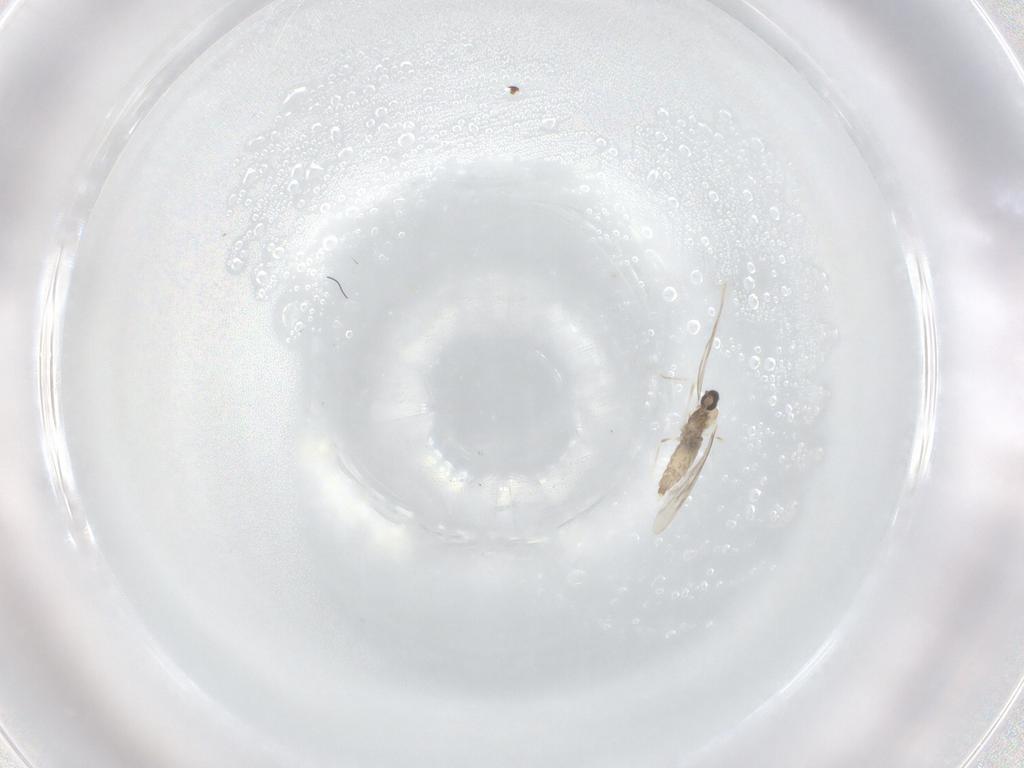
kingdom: Animalia
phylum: Arthropoda
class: Insecta
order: Diptera
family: Cecidomyiidae
